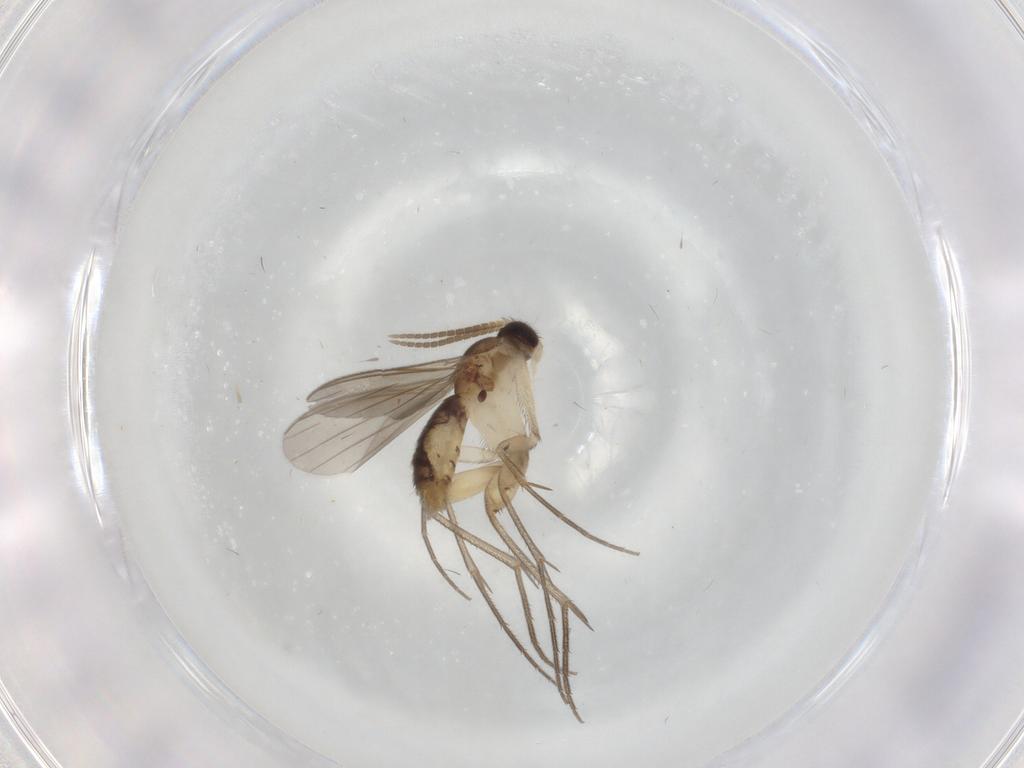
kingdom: Animalia
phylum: Arthropoda
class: Insecta
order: Diptera
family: Mycetophilidae
